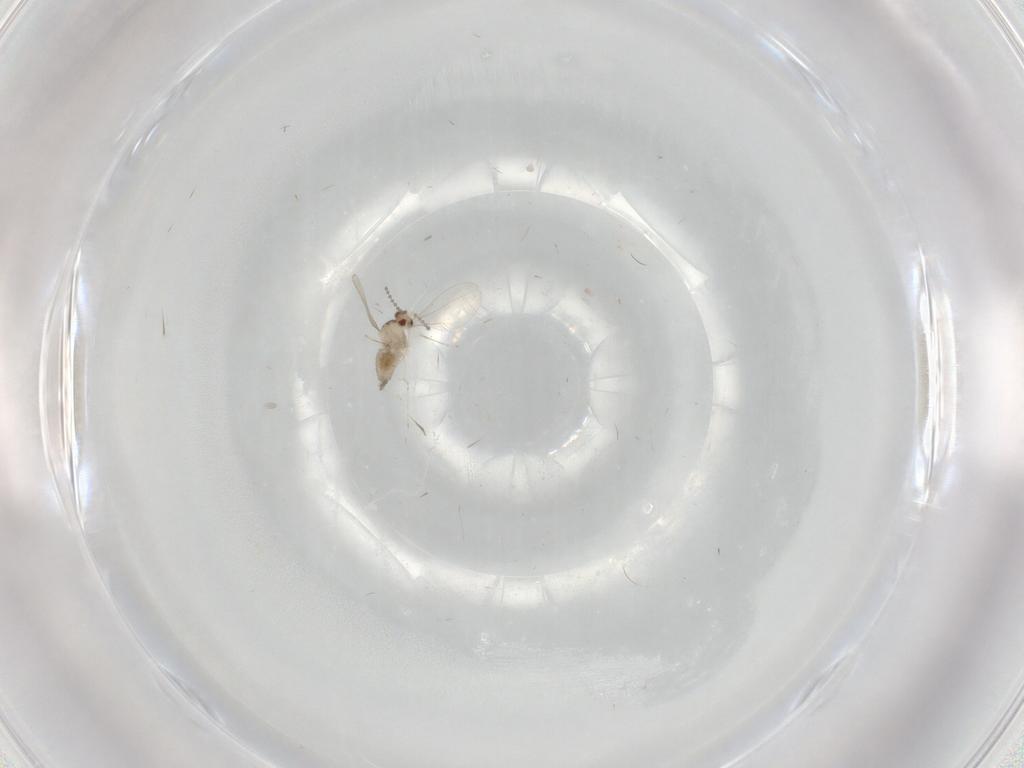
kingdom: Animalia
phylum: Arthropoda
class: Insecta
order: Diptera
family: Cecidomyiidae
